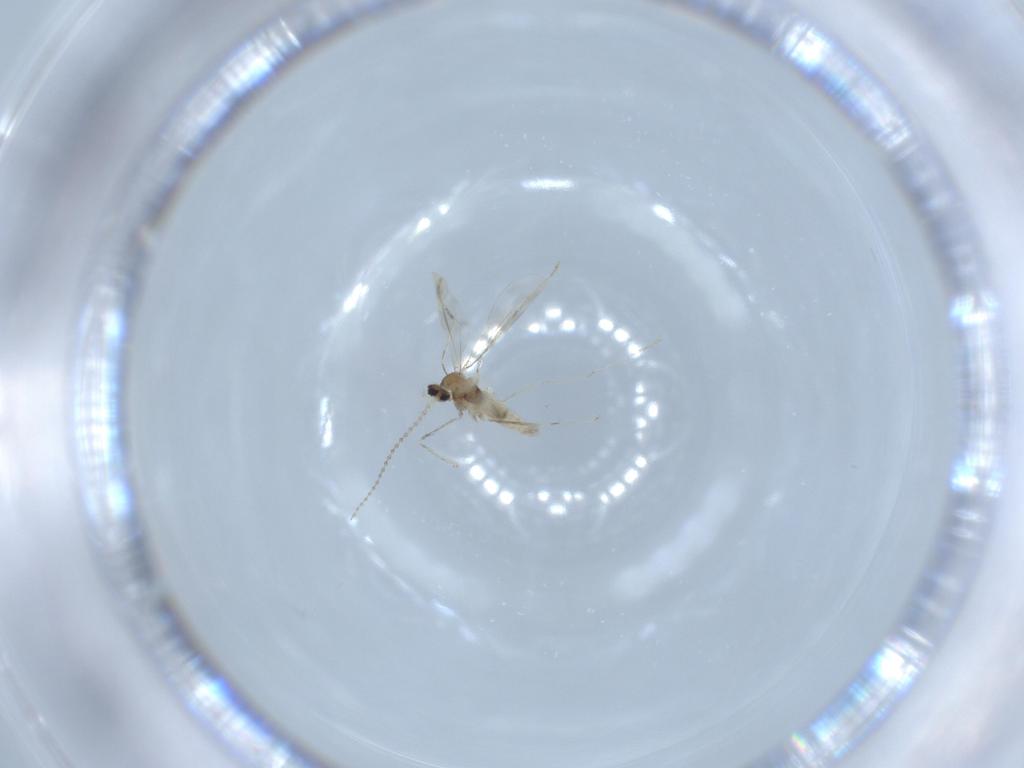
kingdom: Animalia
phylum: Arthropoda
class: Insecta
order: Diptera
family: Cecidomyiidae
